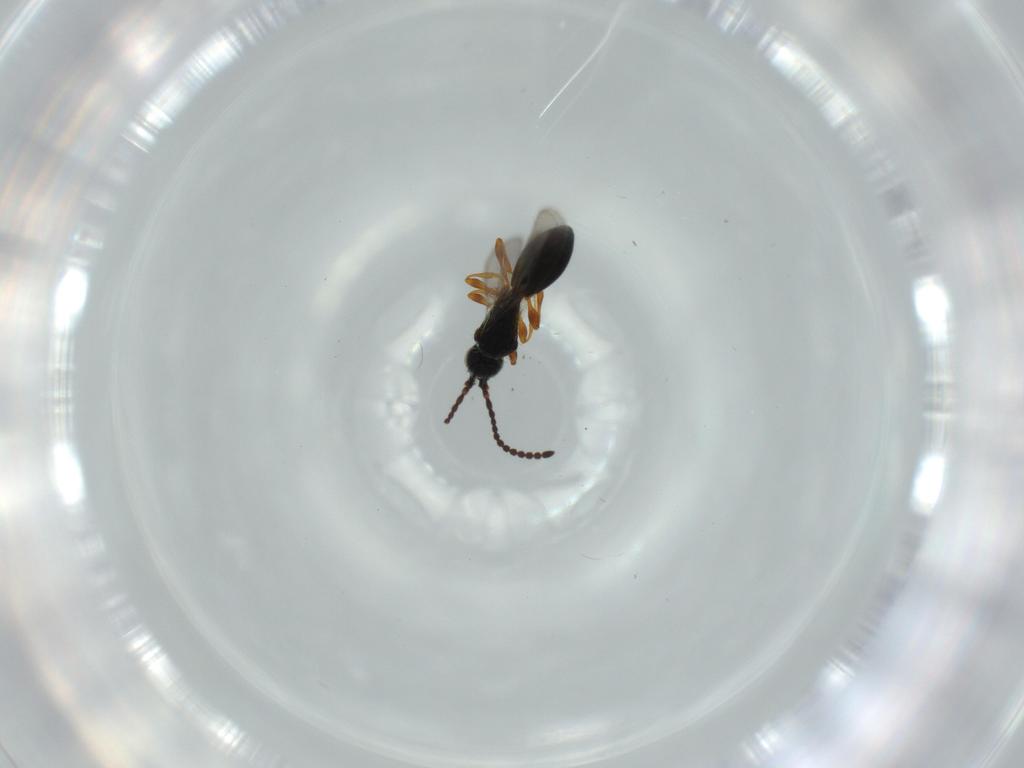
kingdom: Animalia
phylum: Arthropoda
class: Insecta
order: Hymenoptera
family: Diapriidae
